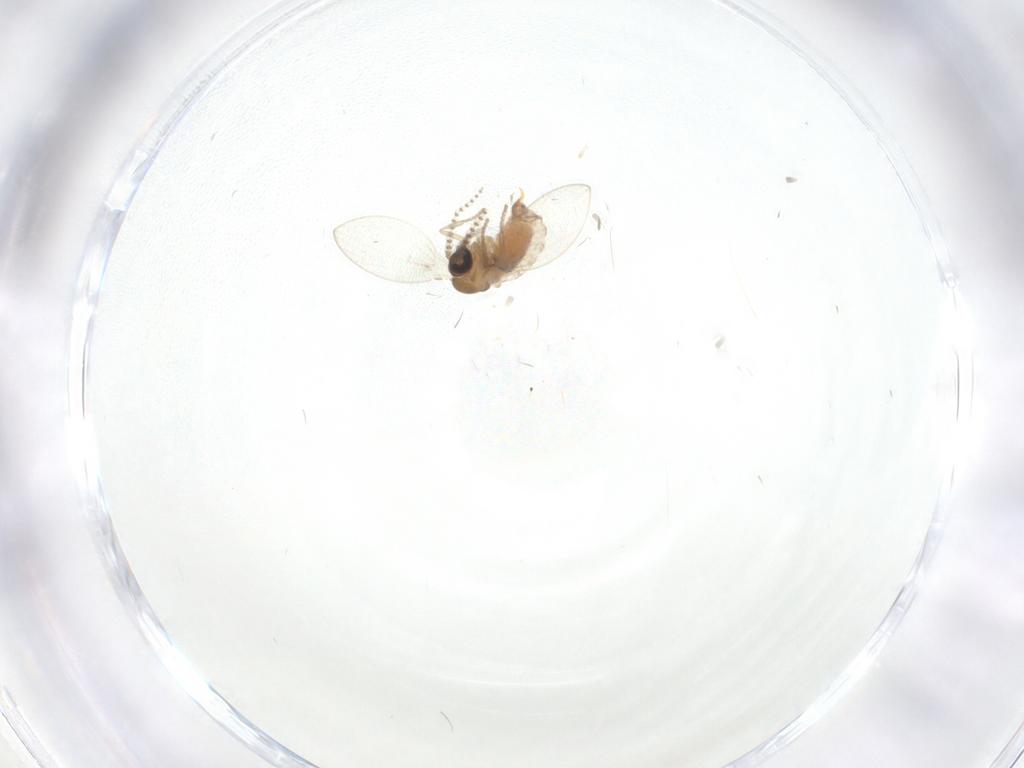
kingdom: Animalia
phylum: Arthropoda
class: Insecta
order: Diptera
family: Psychodidae
